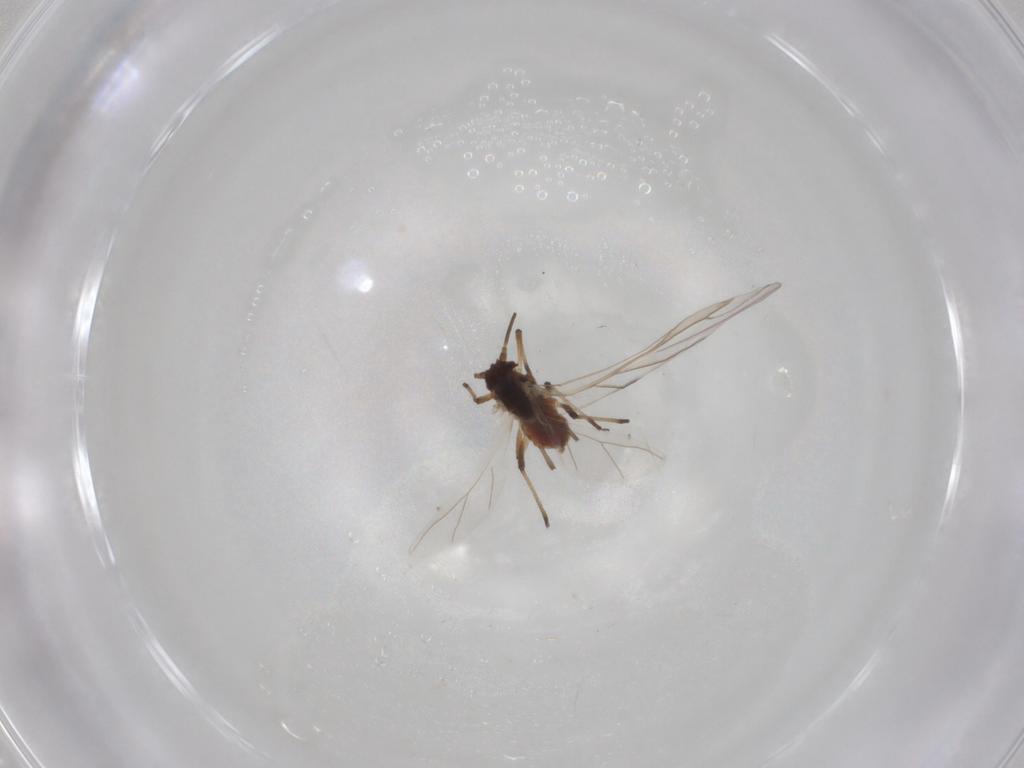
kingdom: Animalia
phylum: Arthropoda
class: Insecta
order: Hemiptera
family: Aphididae
